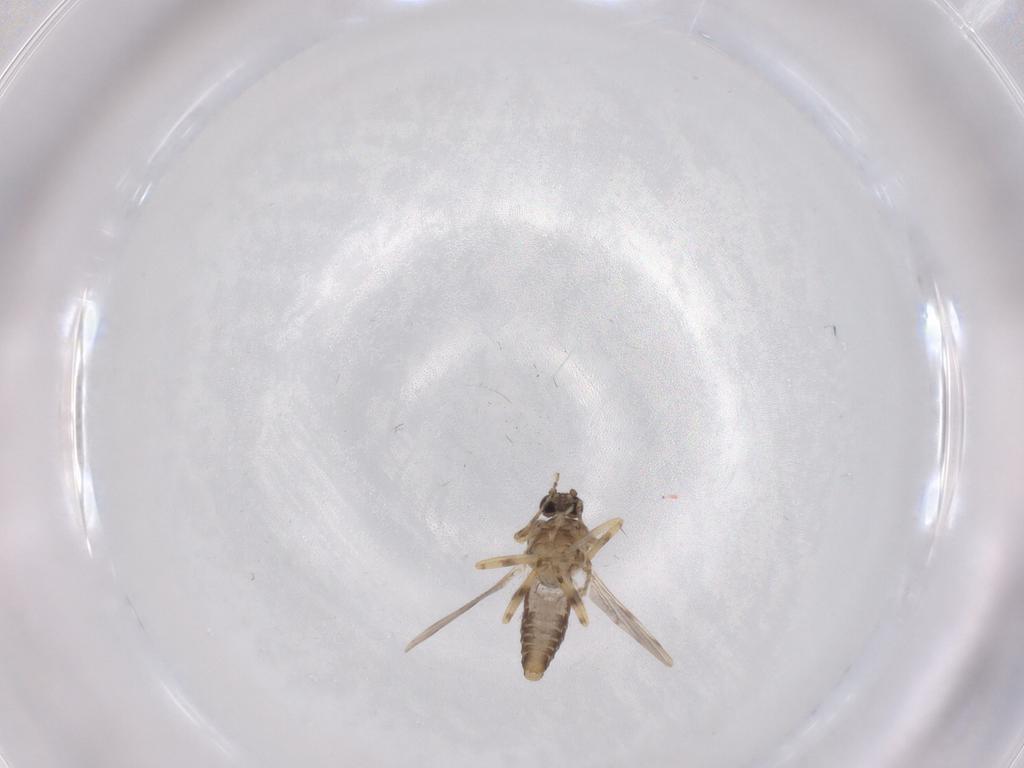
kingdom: Animalia
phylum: Arthropoda
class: Insecta
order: Diptera
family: Ceratopogonidae
